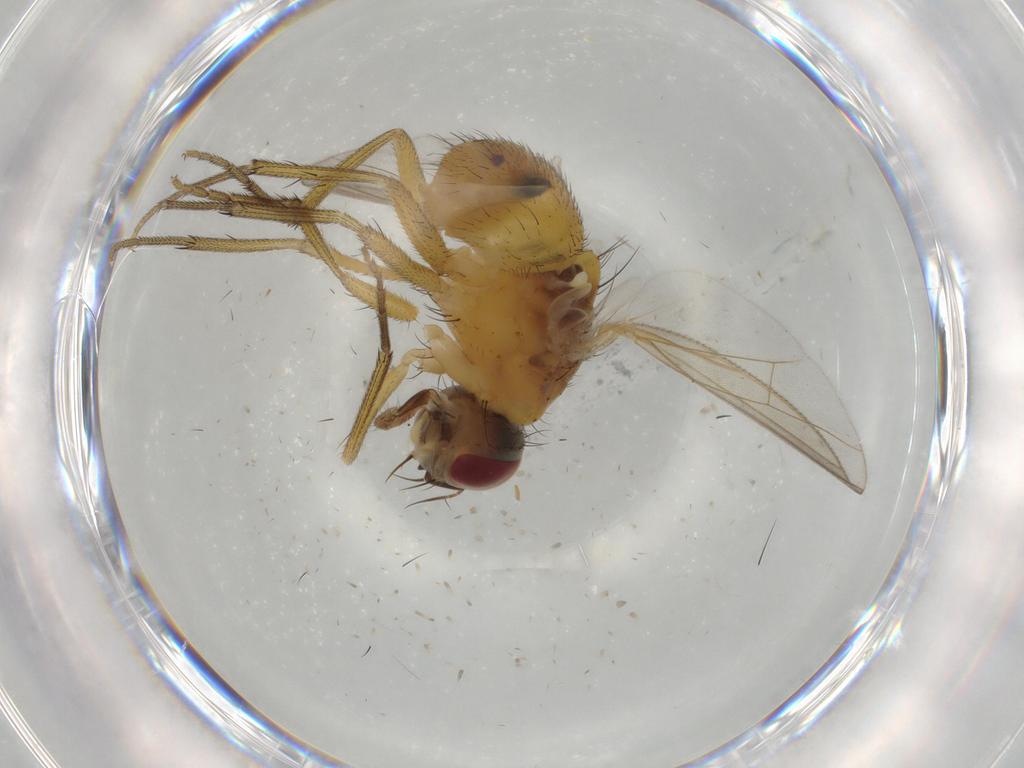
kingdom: Animalia
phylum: Arthropoda
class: Insecta
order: Diptera
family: Muscidae
